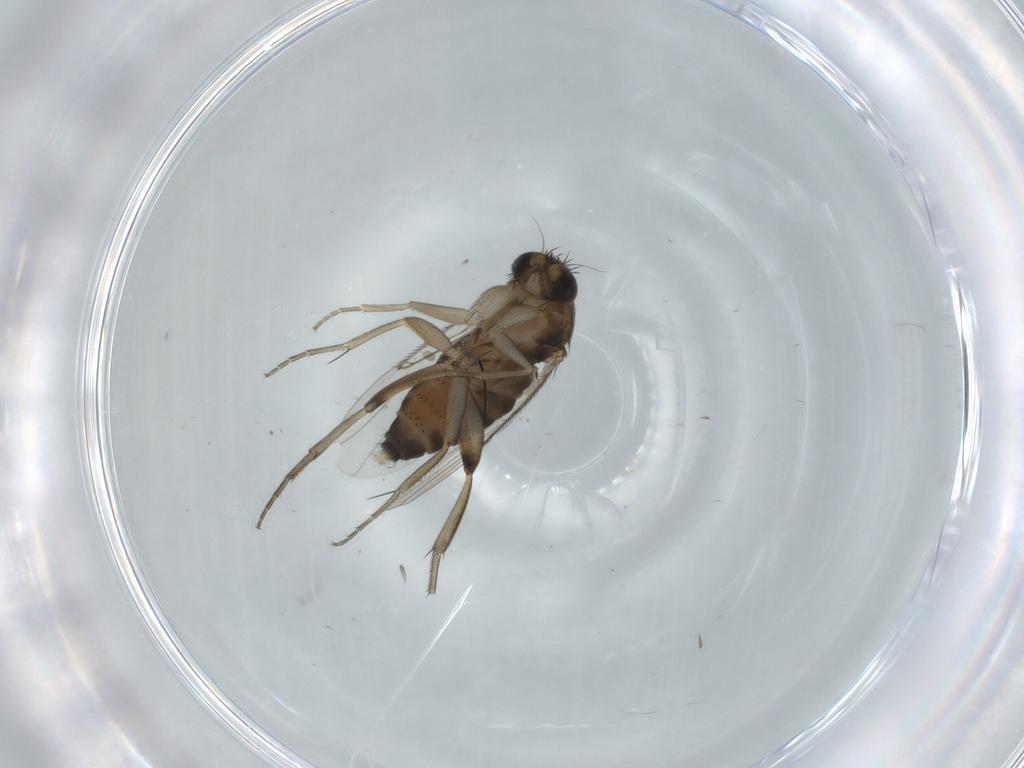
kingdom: Animalia
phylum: Arthropoda
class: Insecta
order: Diptera
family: Phoridae
